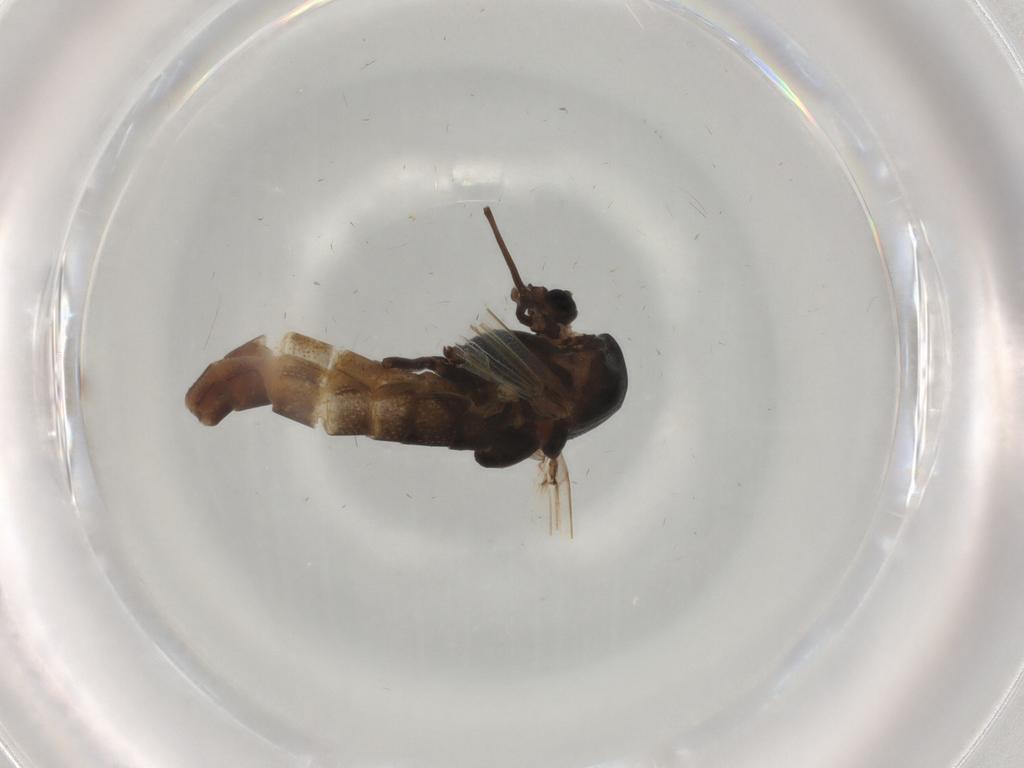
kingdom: Animalia
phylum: Arthropoda
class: Insecta
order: Diptera
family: Chironomidae
